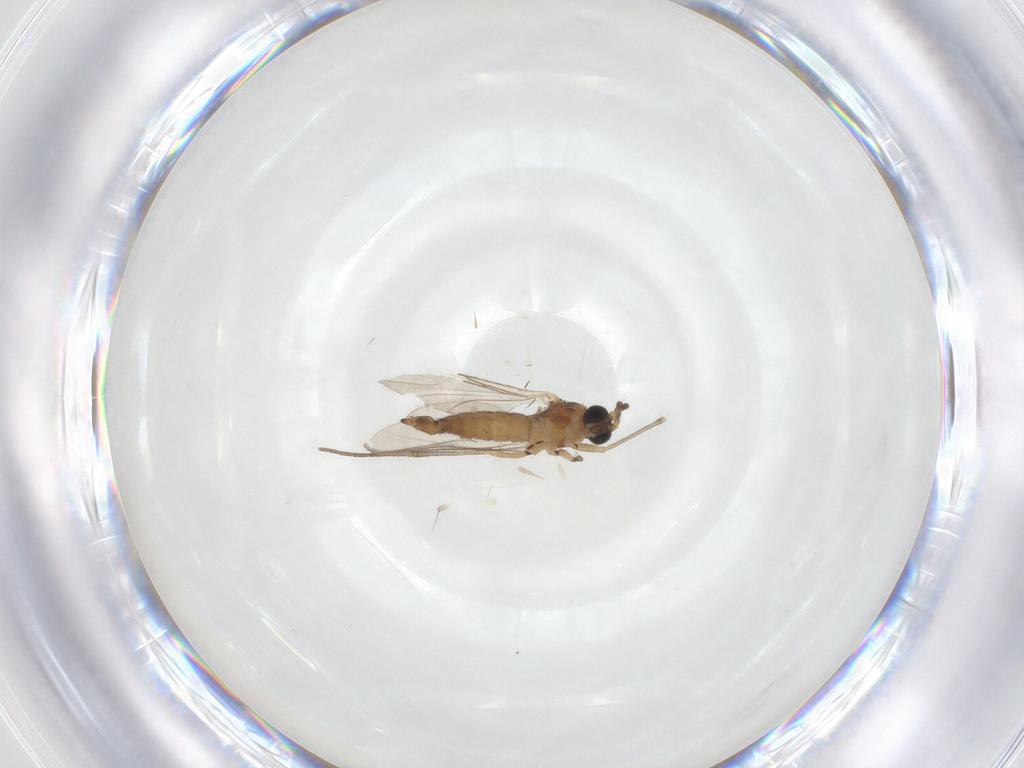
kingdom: Animalia
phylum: Arthropoda
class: Insecta
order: Diptera
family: Sciaridae
